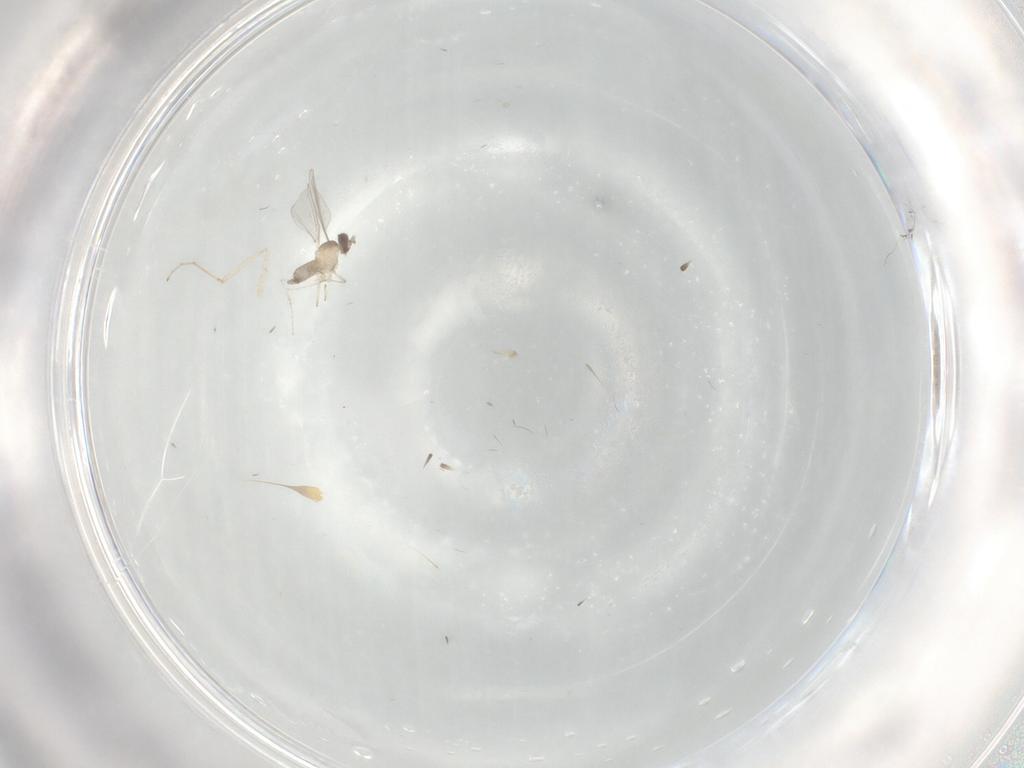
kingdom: Animalia
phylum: Arthropoda
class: Insecta
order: Diptera
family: Cecidomyiidae
